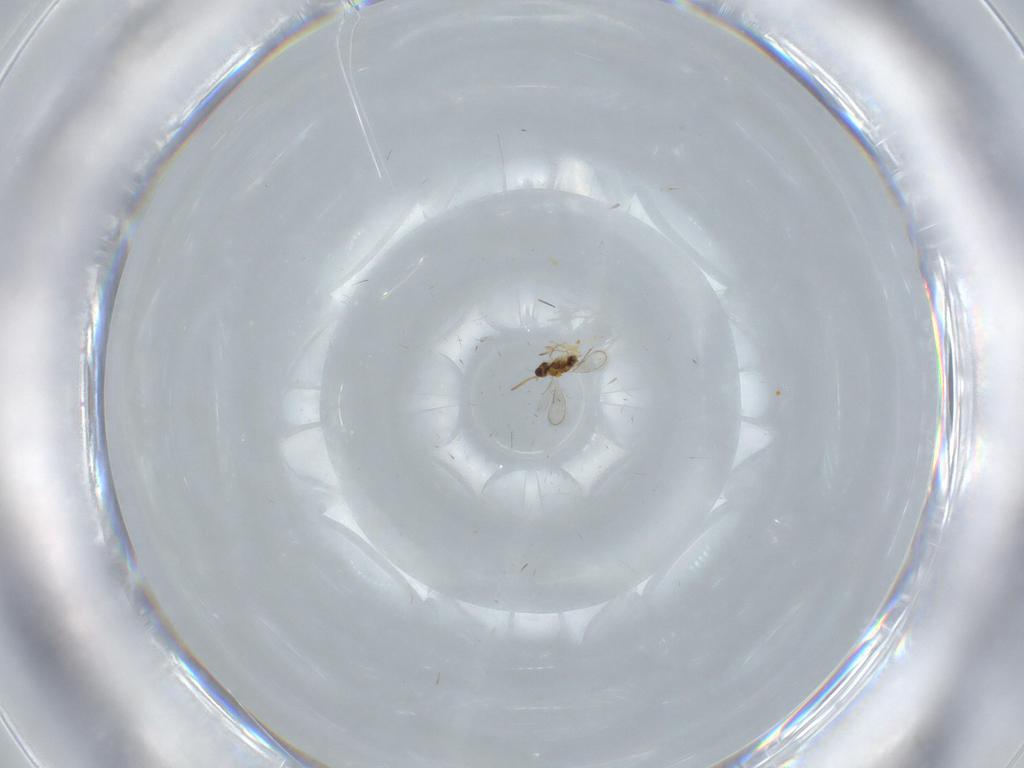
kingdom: Animalia
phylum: Arthropoda
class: Insecta
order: Hymenoptera
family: Aphelinidae
